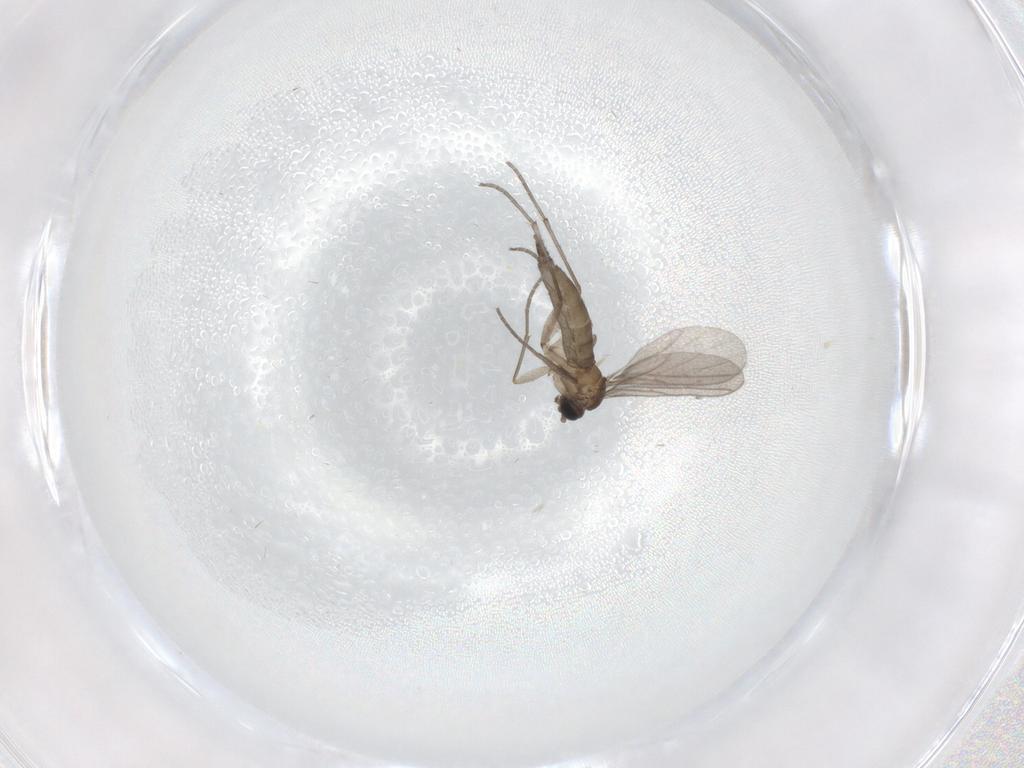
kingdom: Animalia
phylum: Arthropoda
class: Insecta
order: Diptera
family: Sciaridae
